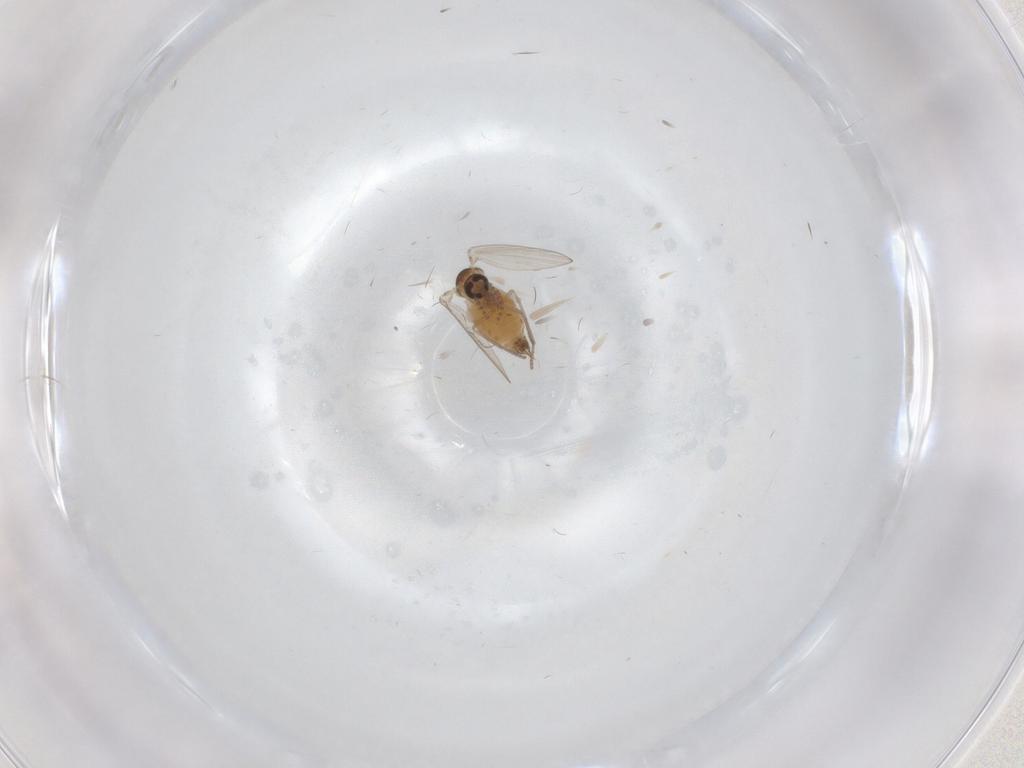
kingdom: Animalia
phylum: Arthropoda
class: Insecta
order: Diptera
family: Psychodidae
